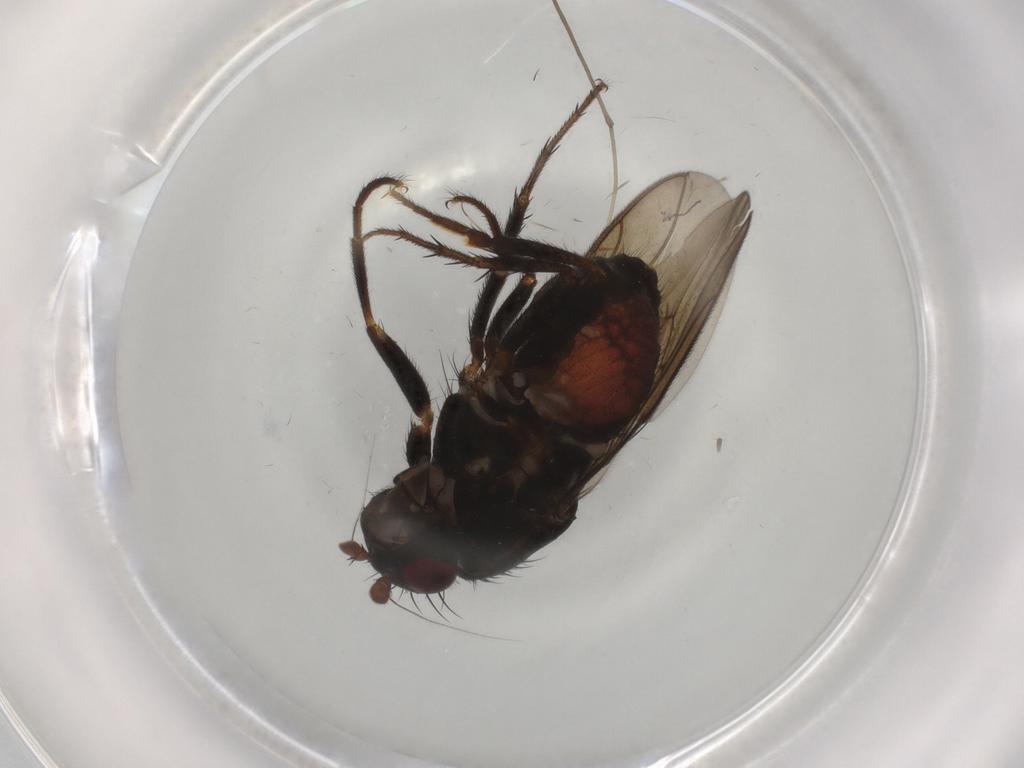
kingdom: Animalia
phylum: Arthropoda
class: Insecta
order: Diptera
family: Sphaeroceridae
